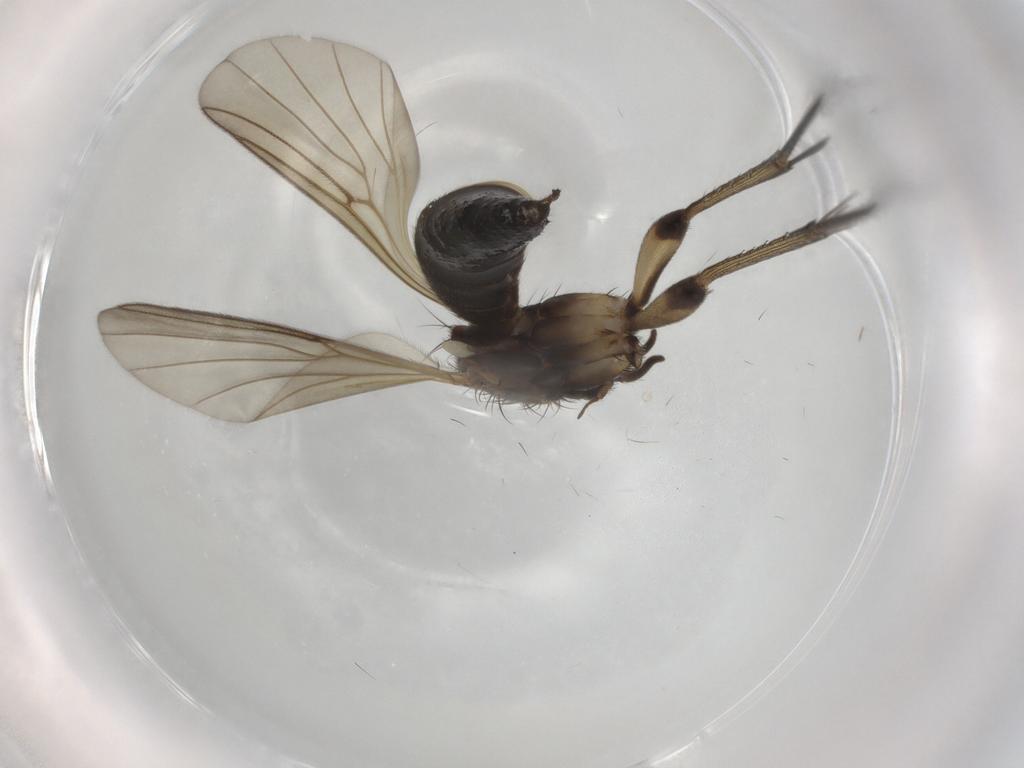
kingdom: Animalia
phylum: Arthropoda
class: Insecta
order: Diptera
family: Mycetophilidae
